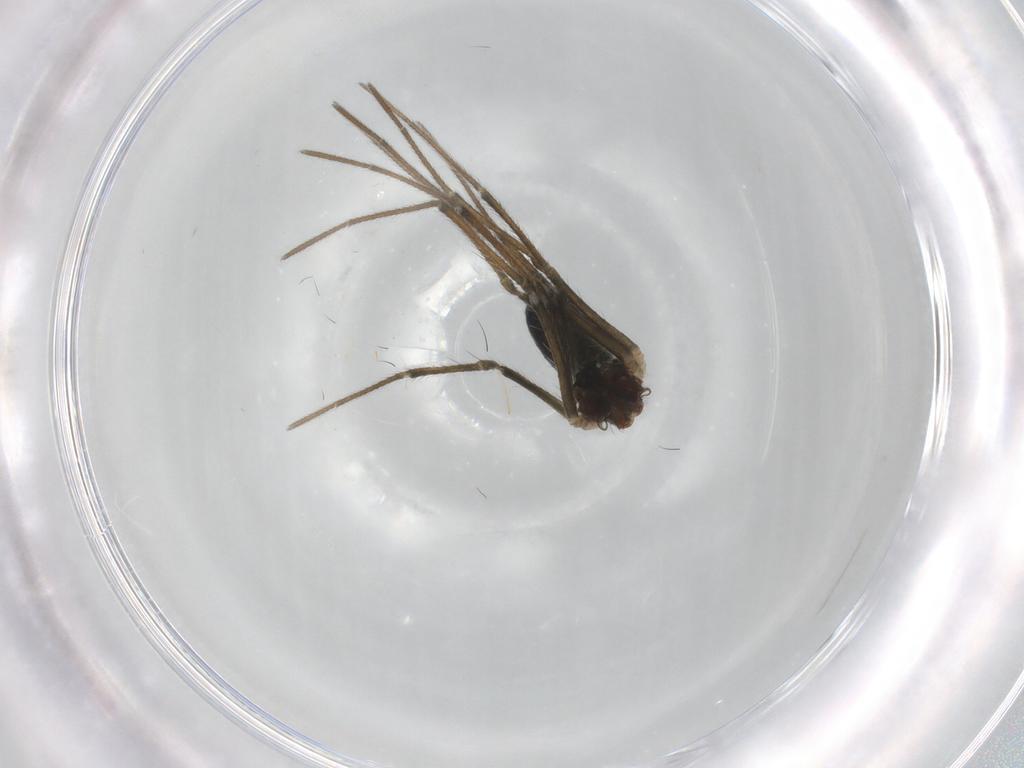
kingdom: Animalia
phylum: Arthropoda
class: Arachnida
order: Araneae
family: Linyphiidae
